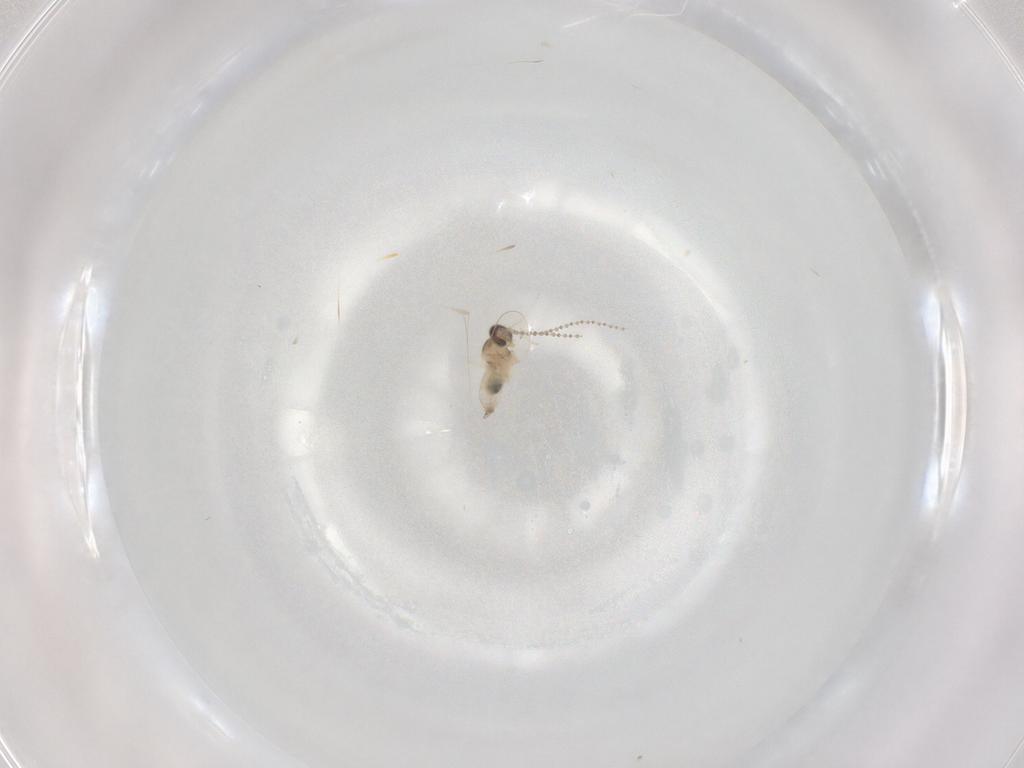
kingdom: Animalia
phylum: Arthropoda
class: Insecta
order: Diptera
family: Cecidomyiidae
